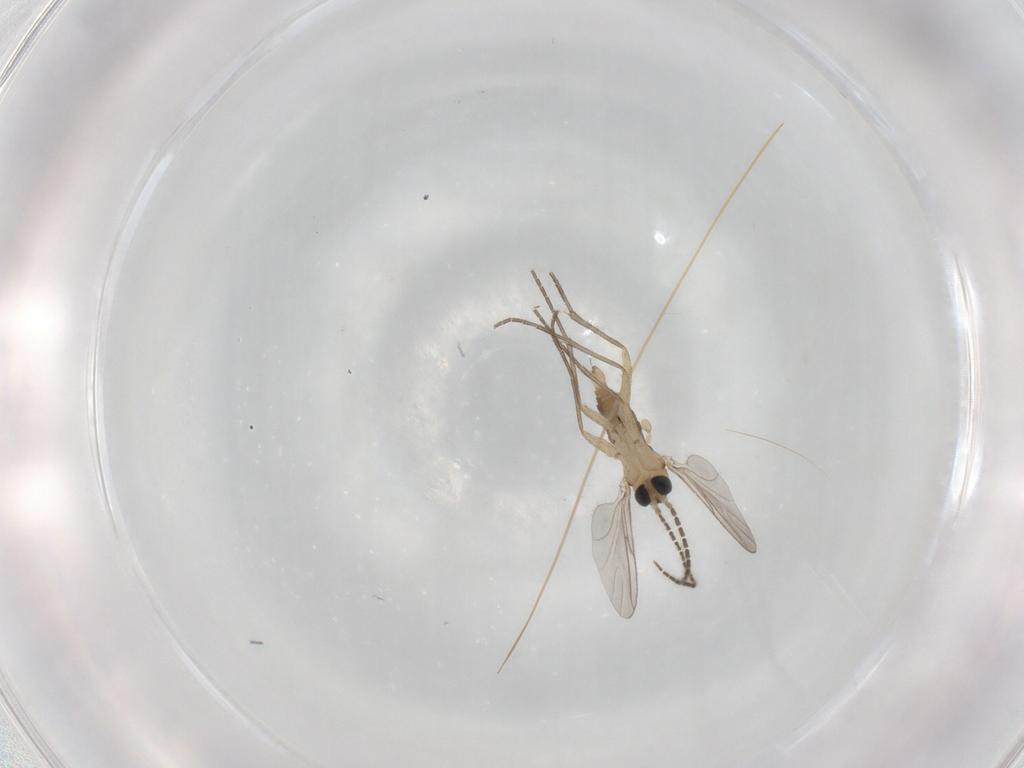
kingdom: Animalia
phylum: Arthropoda
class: Insecta
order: Diptera
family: Sciaridae
